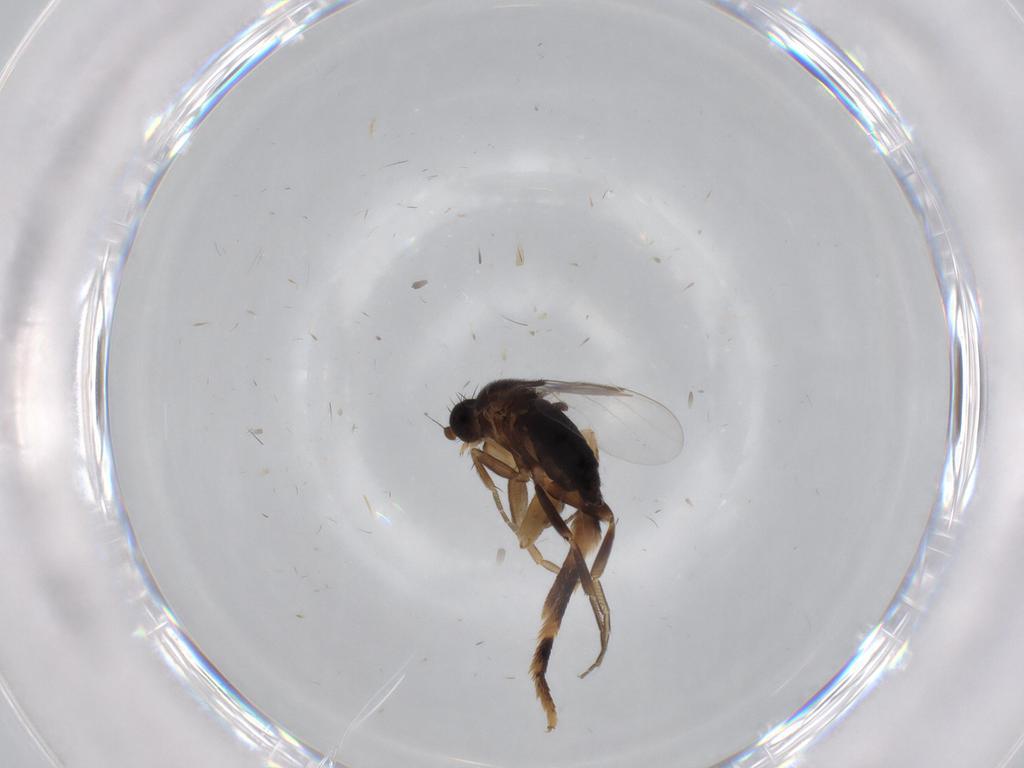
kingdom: Animalia
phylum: Arthropoda
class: Insecta
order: Diptera
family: Phoridae
